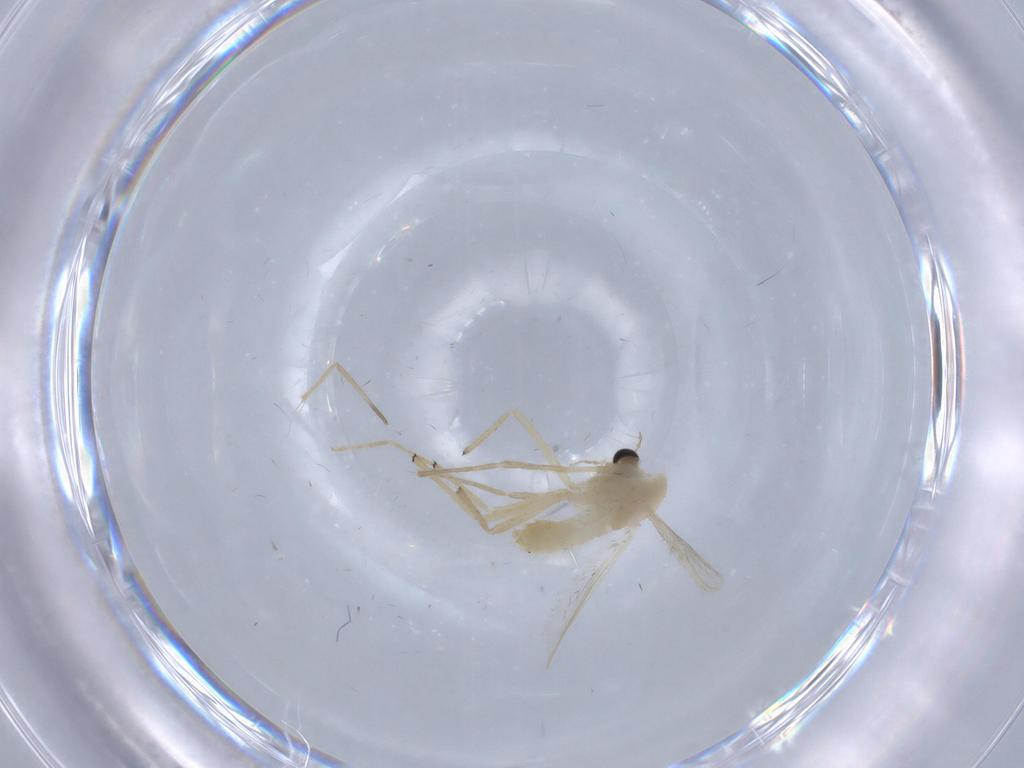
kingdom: Animalia
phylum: Arthropoda
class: Insecta
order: Diptera
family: Chironomidae
